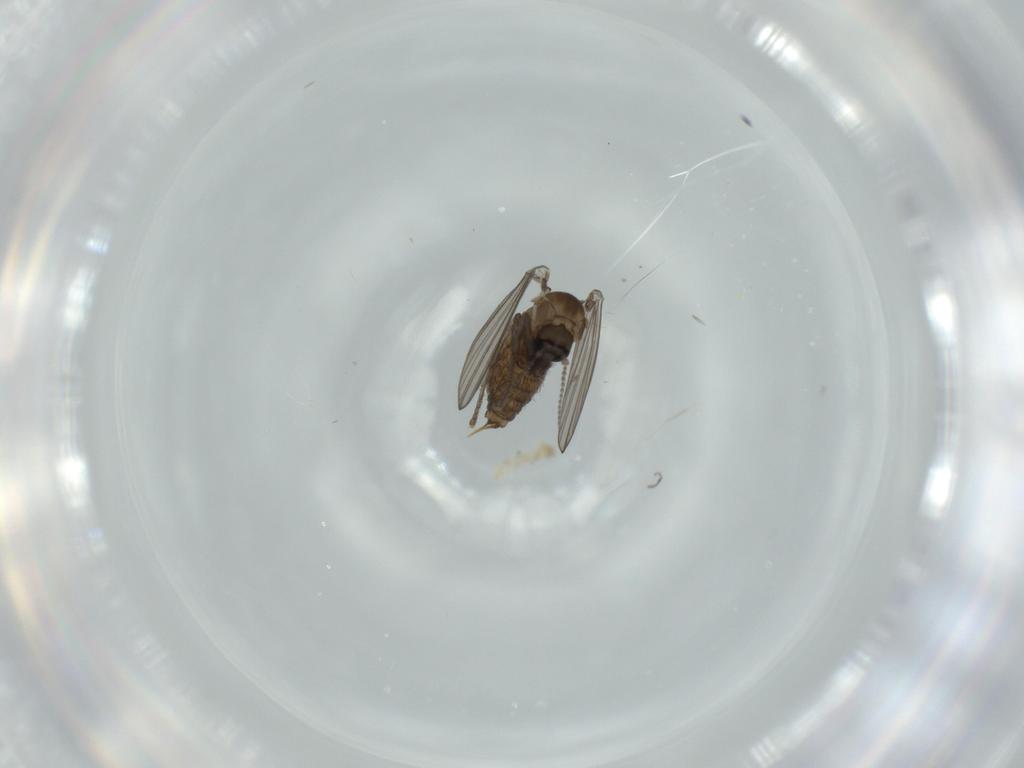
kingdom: Animalia
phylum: Arthropoda
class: Insecta
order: Diptera
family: Psychodidae
